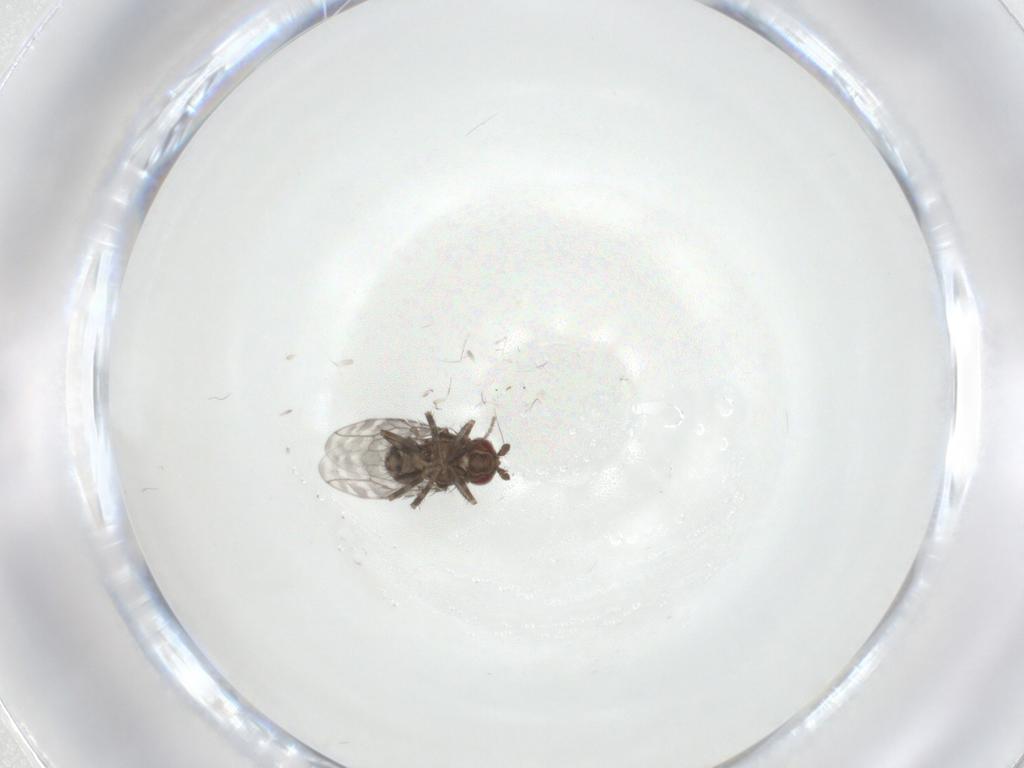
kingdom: Animalia
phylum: Arthropoda
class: Insecta
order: Diptera
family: Sphaeroceridae
